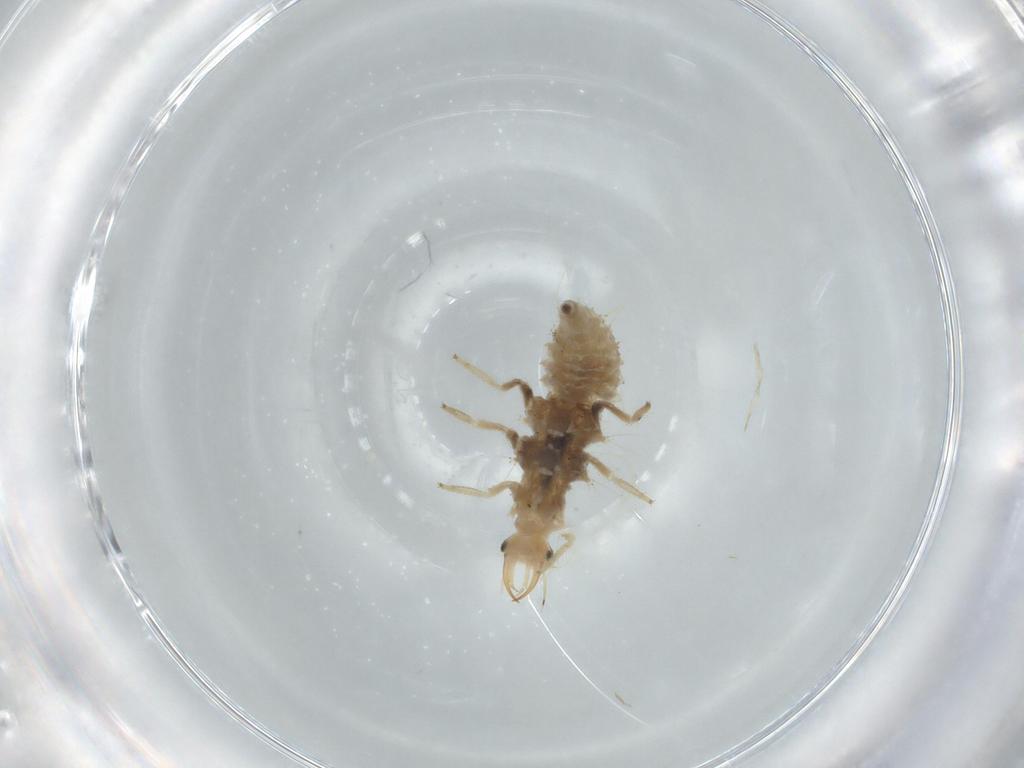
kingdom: Animalia
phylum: Arthropoda
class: Insecta
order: Neuroptera
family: Chrysopidae
